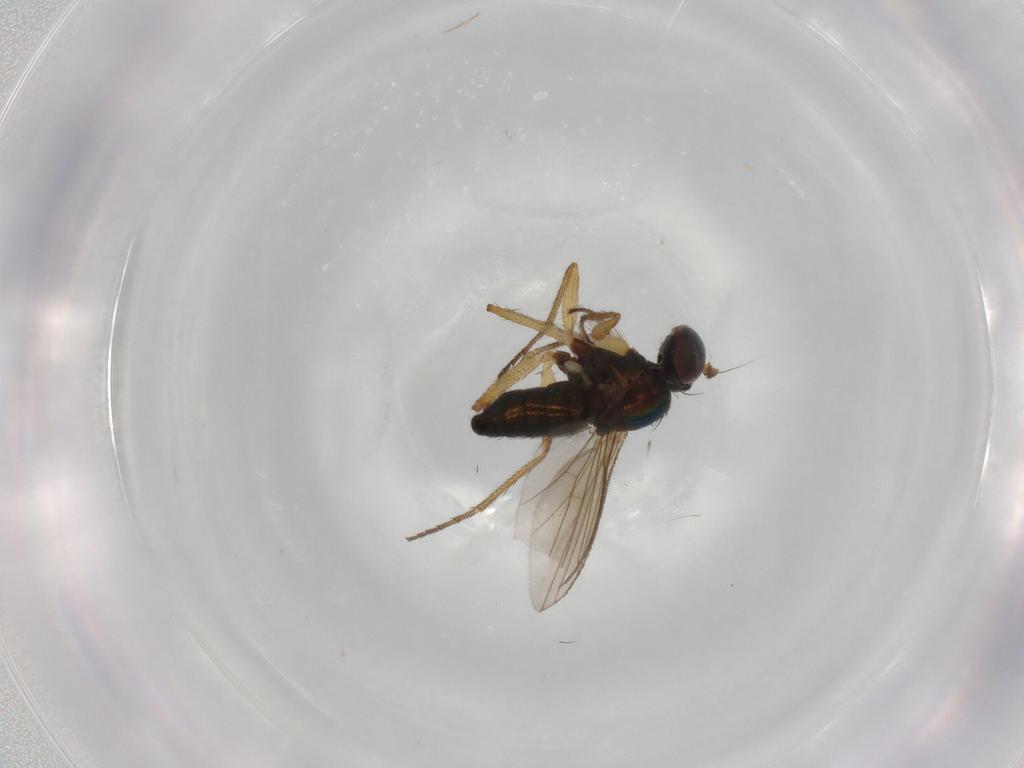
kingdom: Animalia
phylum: Arthropoda
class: Insecta
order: Diptera
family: Dolichopodidae
